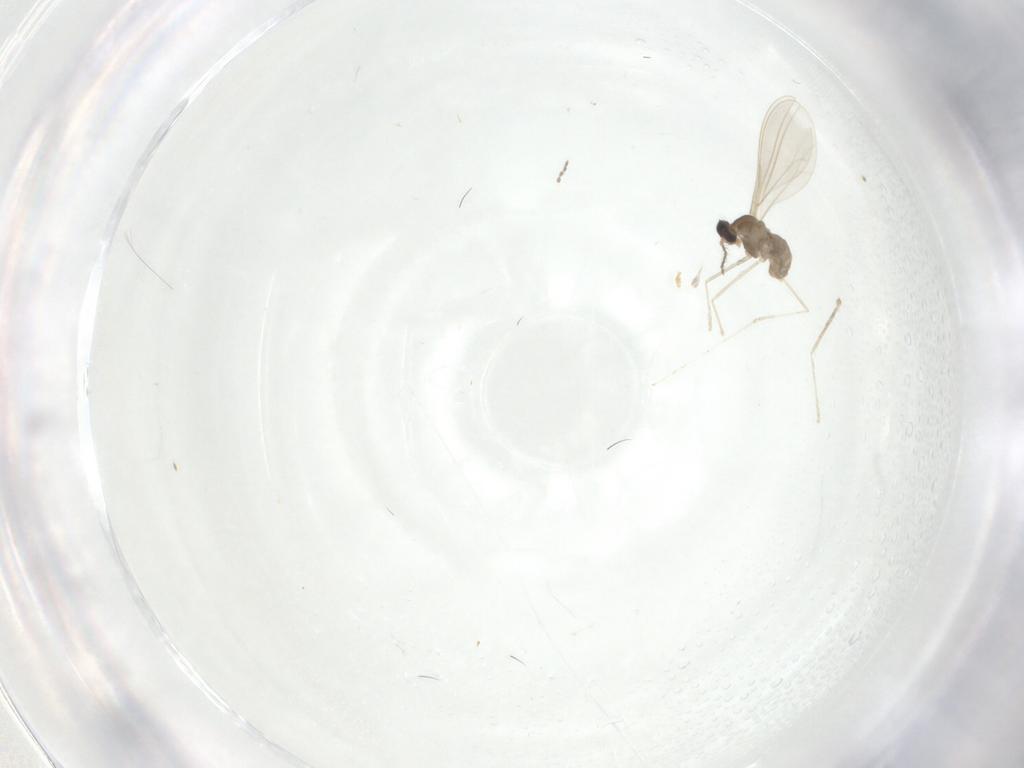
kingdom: Animalia
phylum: Arthropoda
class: Insecta
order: Diptera
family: Cecidomyiidae
